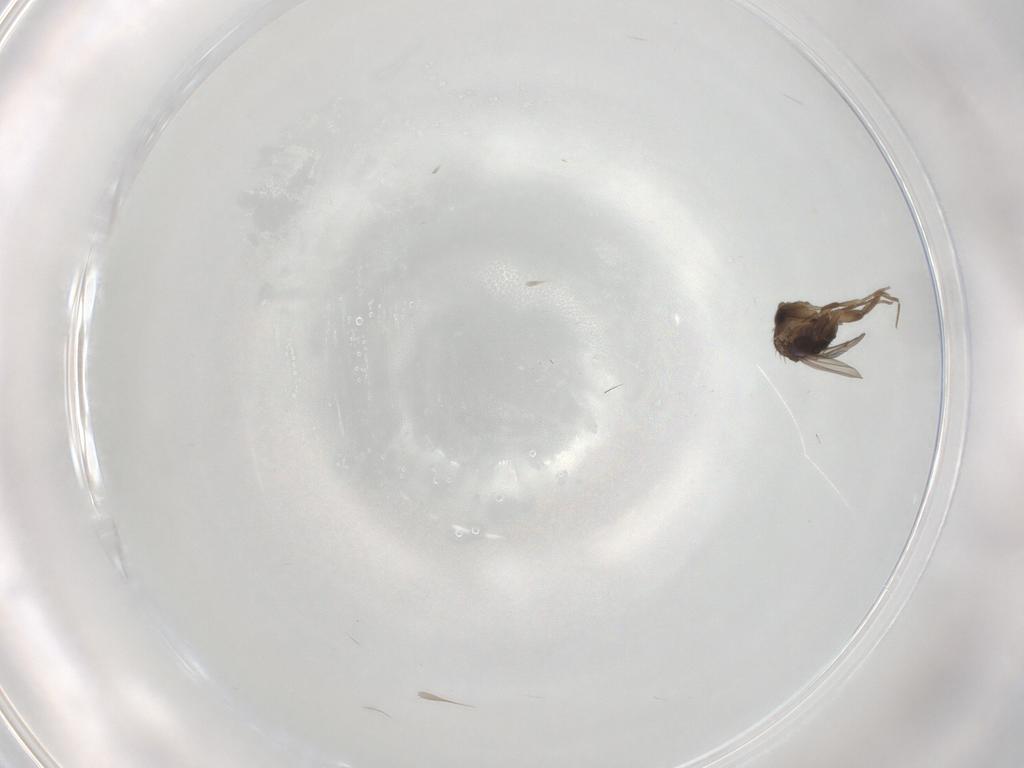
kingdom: Animalia
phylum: Arthropoda
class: Insecta
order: Diptera
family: Phoridae
